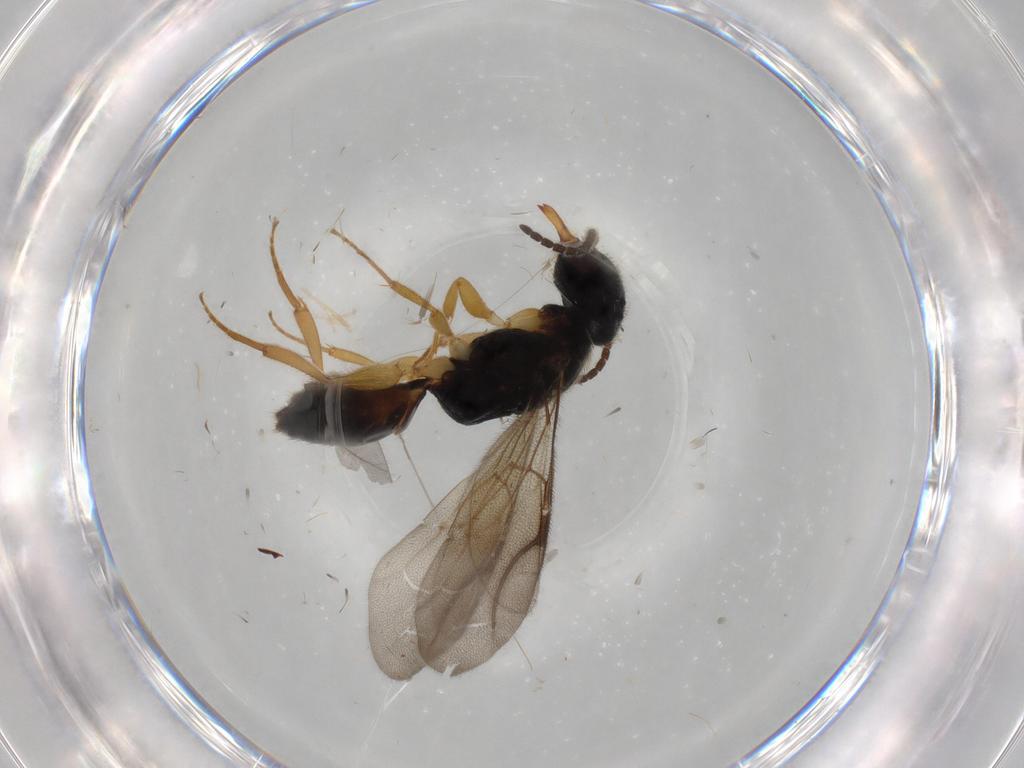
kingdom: Animalia
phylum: Arthropoda
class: Insecta
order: Hymenoptera
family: Bethylidae
